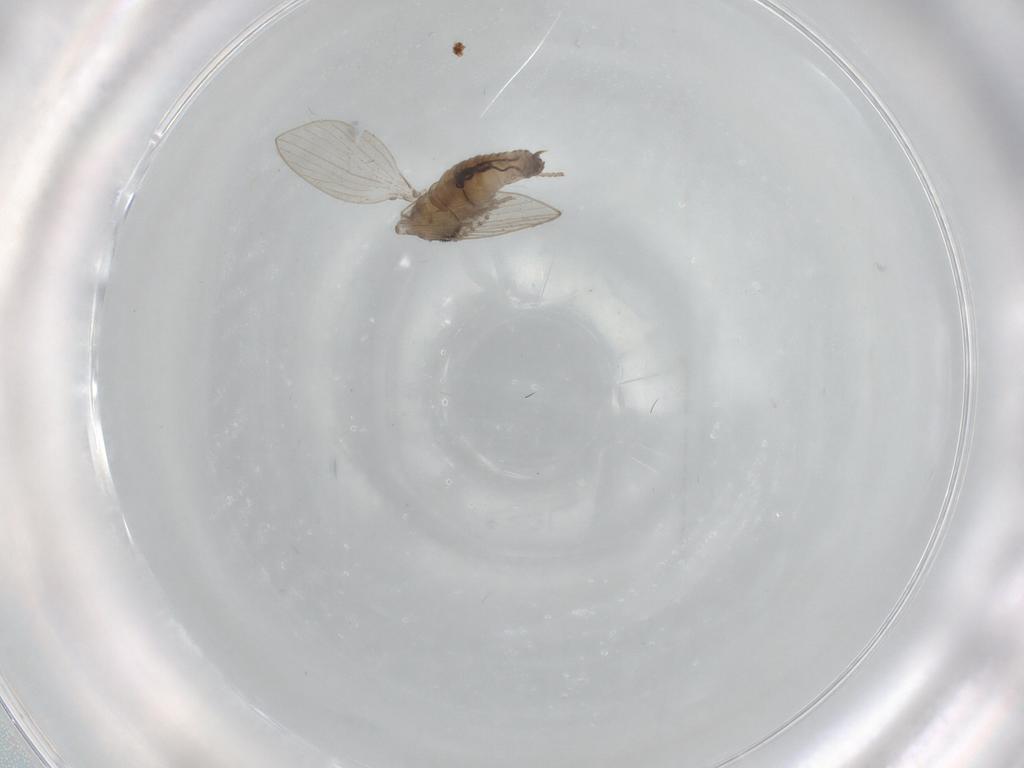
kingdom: Animalia
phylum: Arthropoda
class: Insecta
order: Diptera
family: Psychodidae
